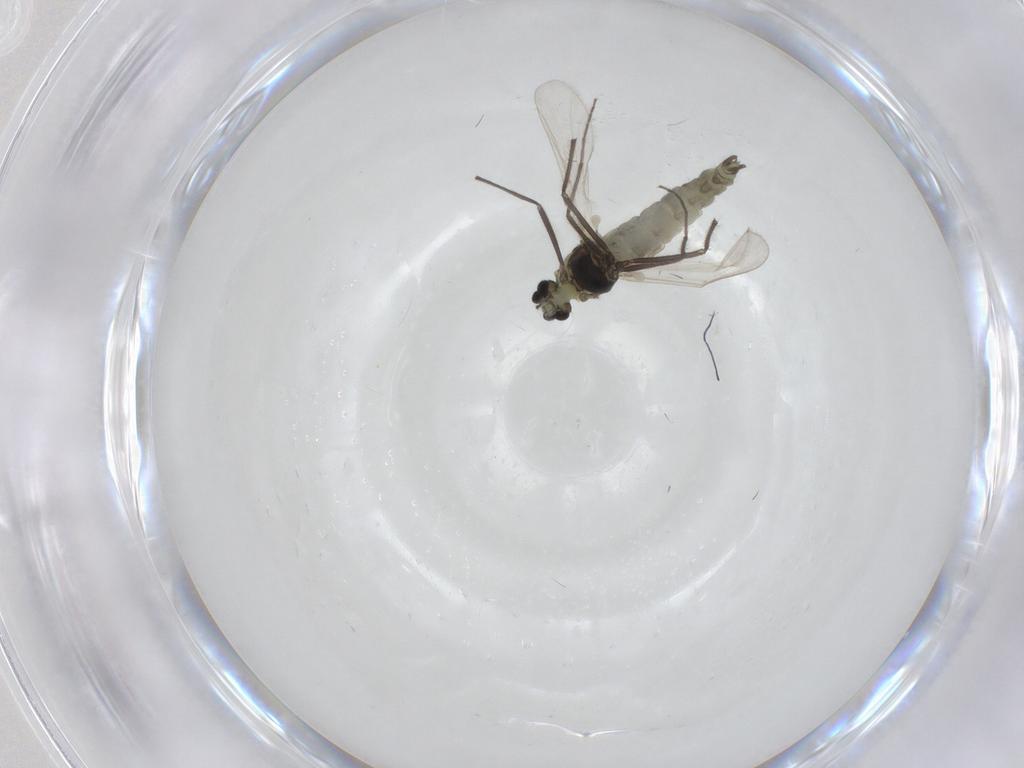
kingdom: Animalia
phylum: Arthropoda
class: Insecta
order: Diptera
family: Chironomidae
